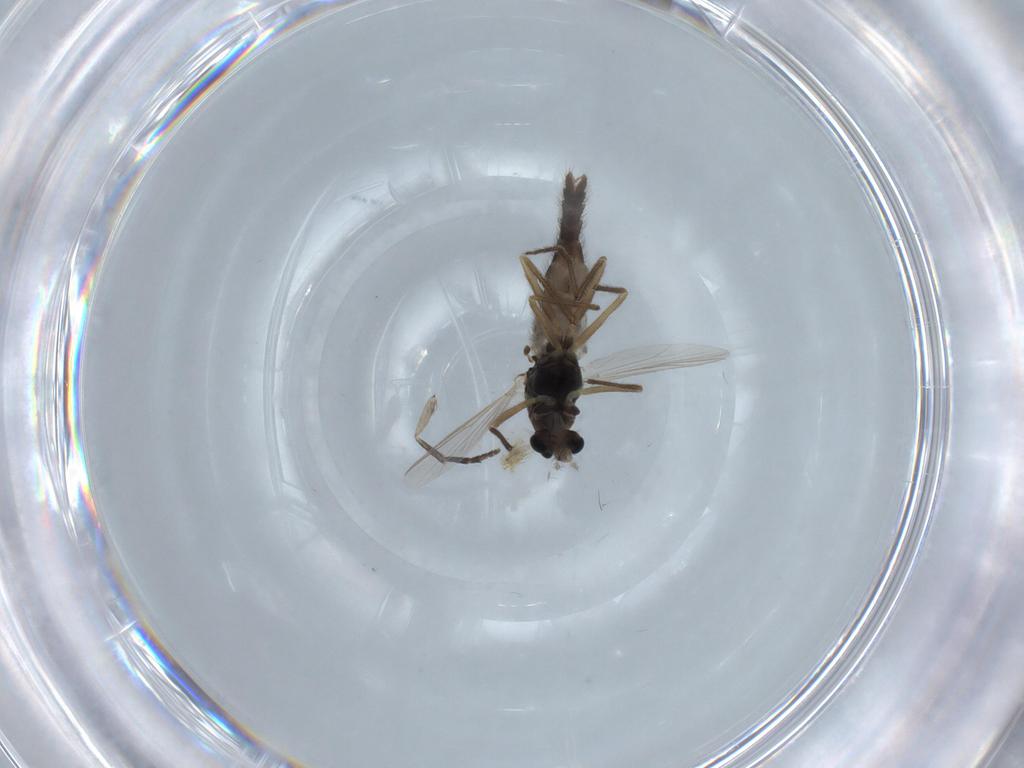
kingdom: Animalia
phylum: Arthropoda
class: Insecta
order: Diptera
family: Chironomidae
